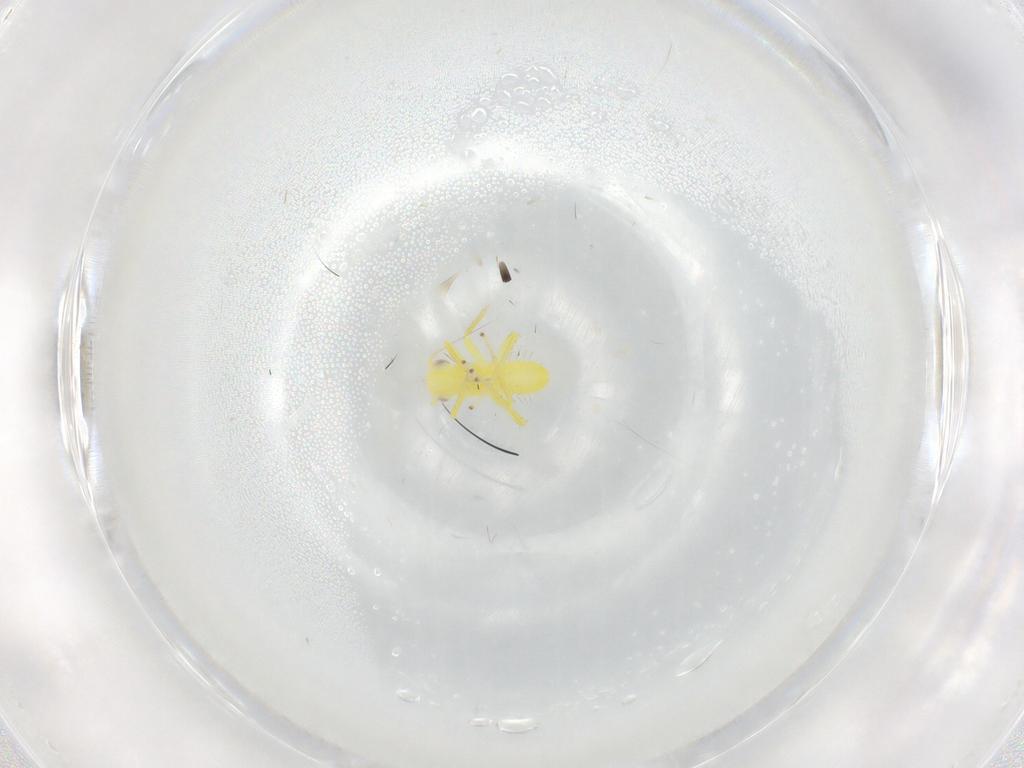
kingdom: Animalia
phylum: Arthropoda
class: Insecta
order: Hemiptera
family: Cicadellidae
